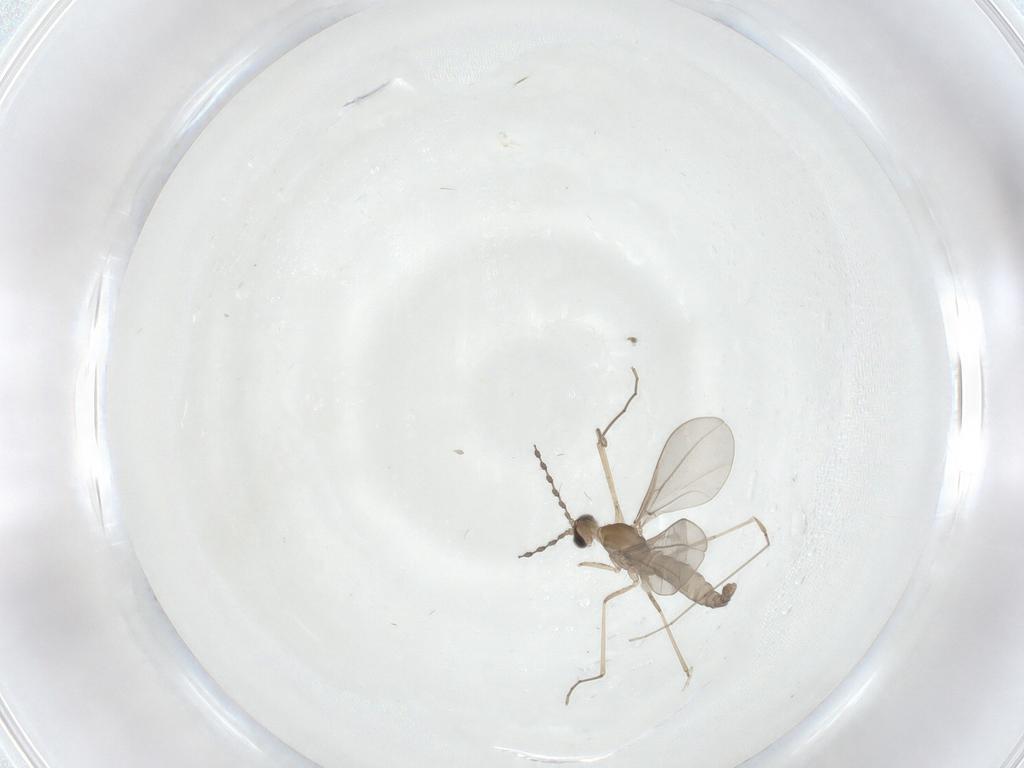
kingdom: Animalia
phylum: Arthropoda
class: Insecta
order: Diptera
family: Cecidomyiidae
